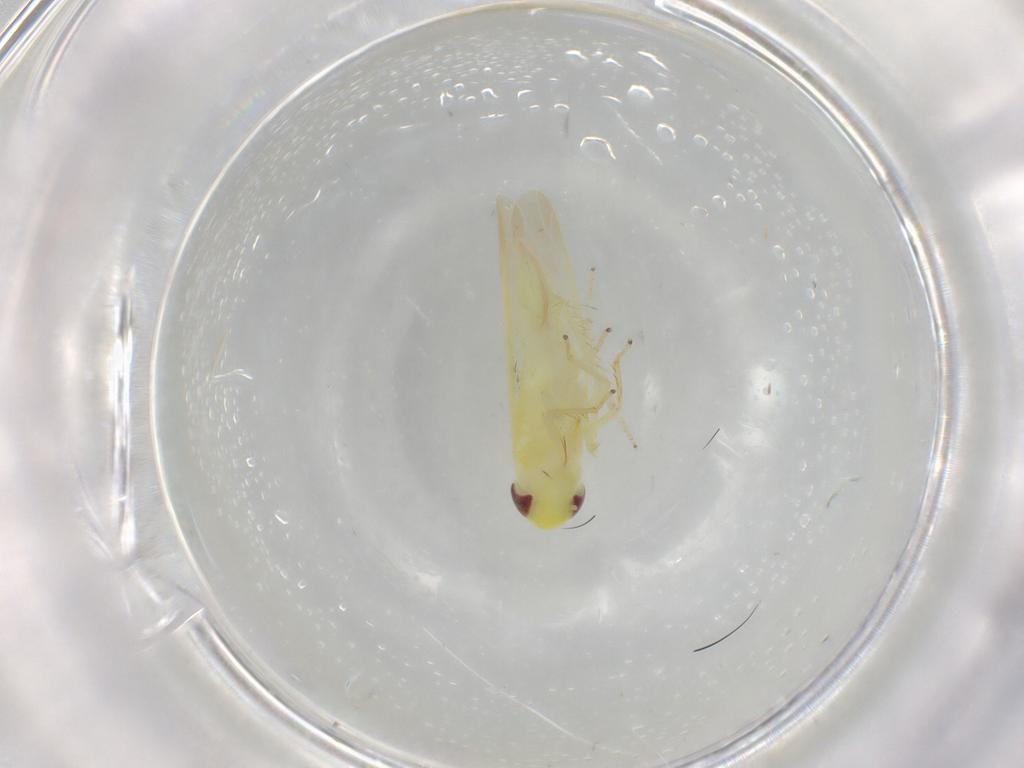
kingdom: Animalia
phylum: Arthropoda
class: Insecta
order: Hemiptera
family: Cicadellidae
